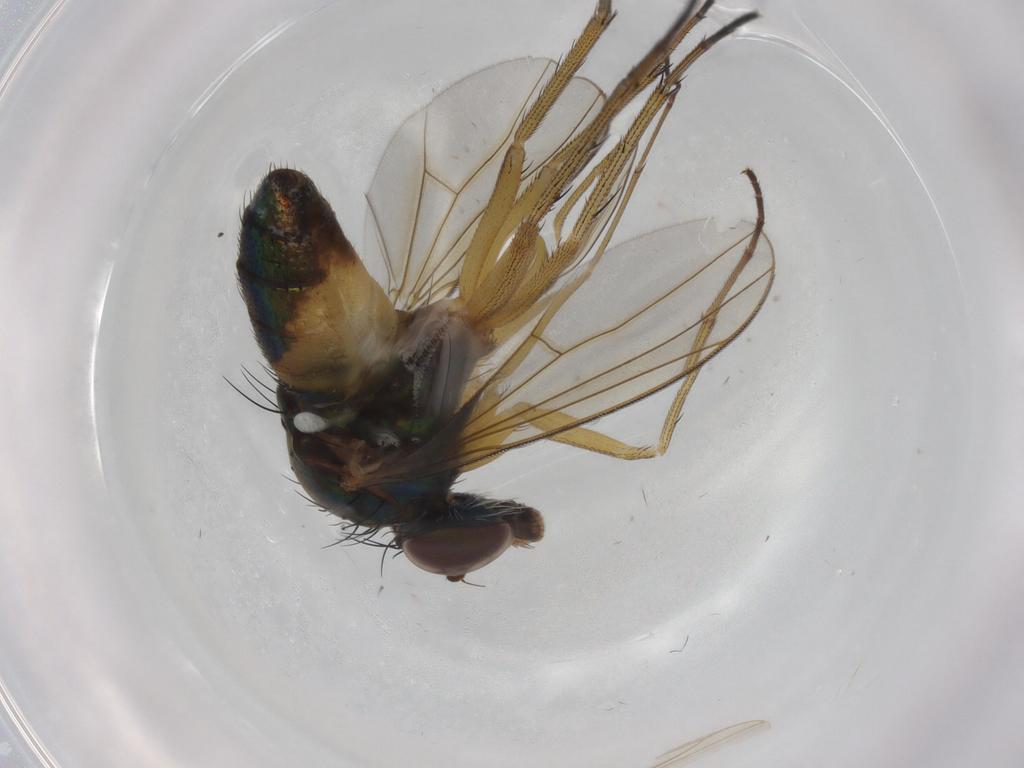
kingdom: Animalia
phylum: Arthropoda
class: Insecta
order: Diptera
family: Dolichopodidae
